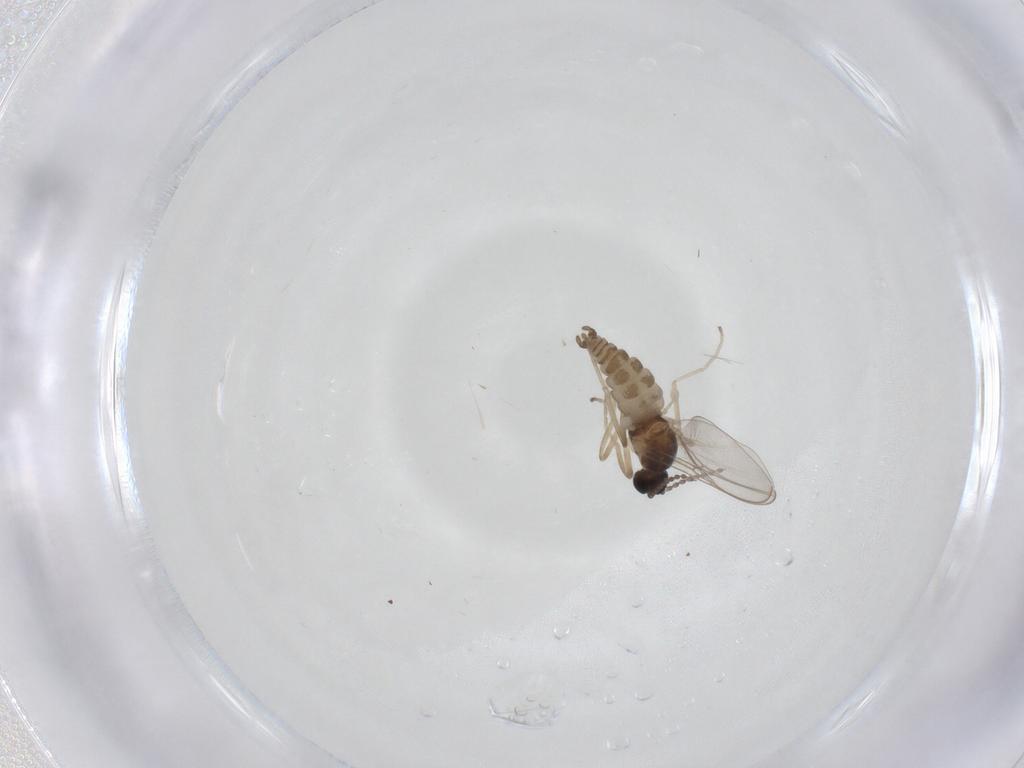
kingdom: Animalia
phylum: Arthropoda
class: Insecta
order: Diptera
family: Cecidomyiidae
